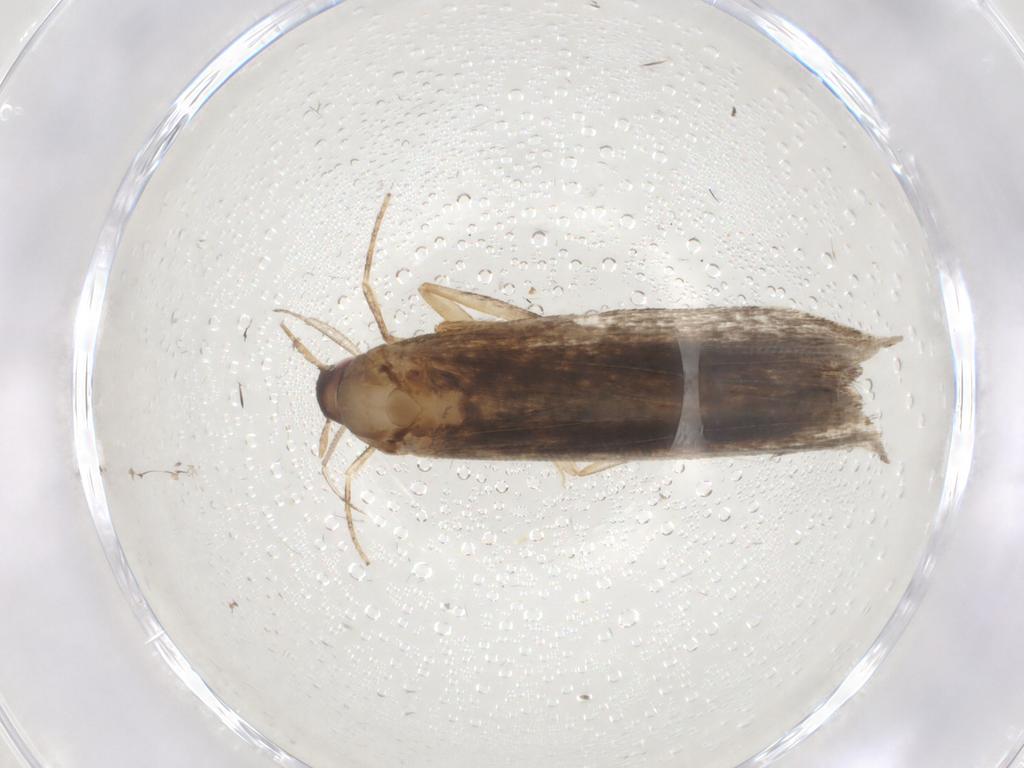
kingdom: Animalia
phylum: Arthropoda
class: Insecta
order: Lepidoptera
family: Gelechiidae
